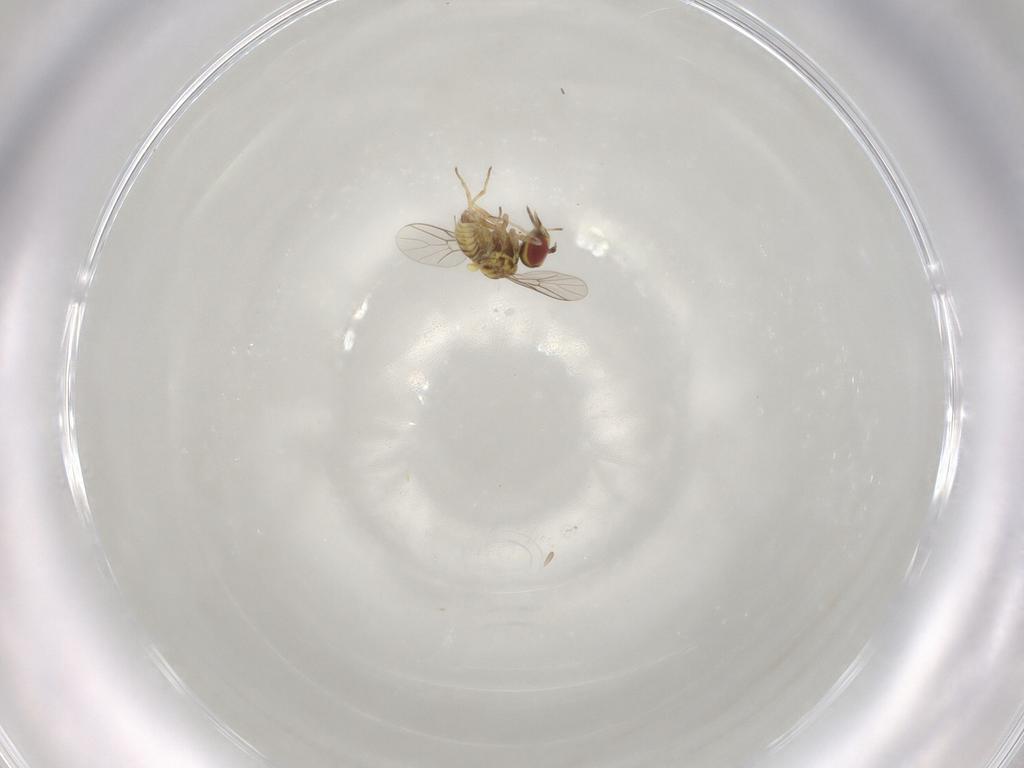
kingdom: Animalia
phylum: Arthropoda
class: Insecta
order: Diptera
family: Mythicomyiidae
